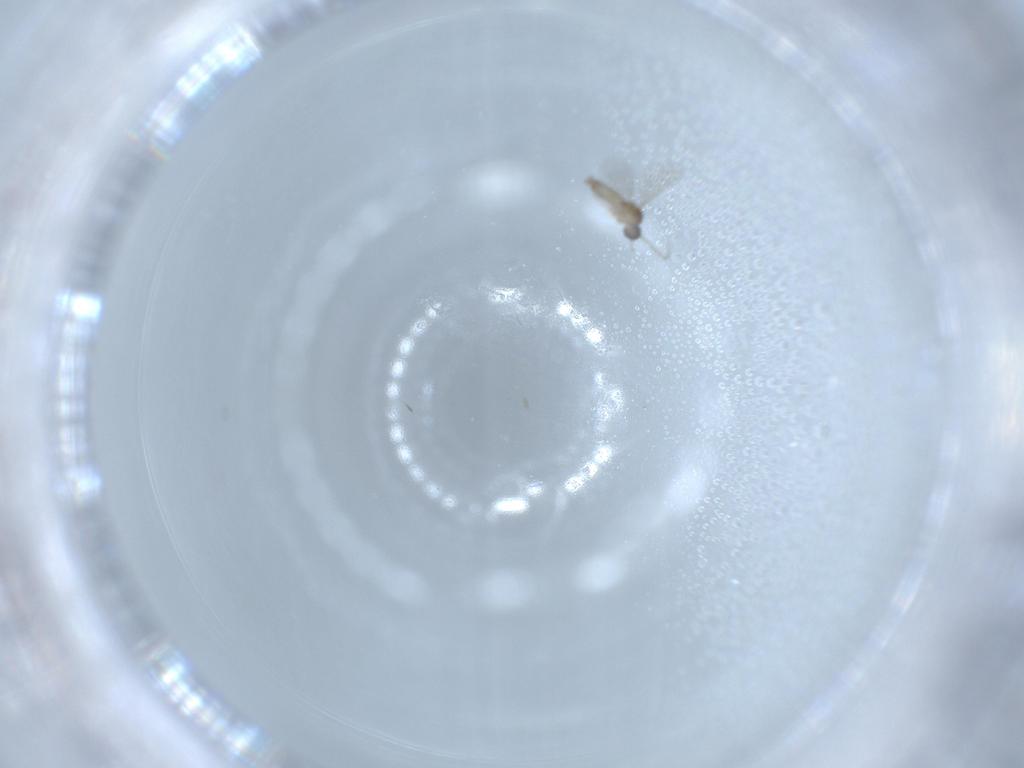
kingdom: Animalia
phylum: Arthropoda
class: Insecta
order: Diptera
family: Cecidomyiidae
